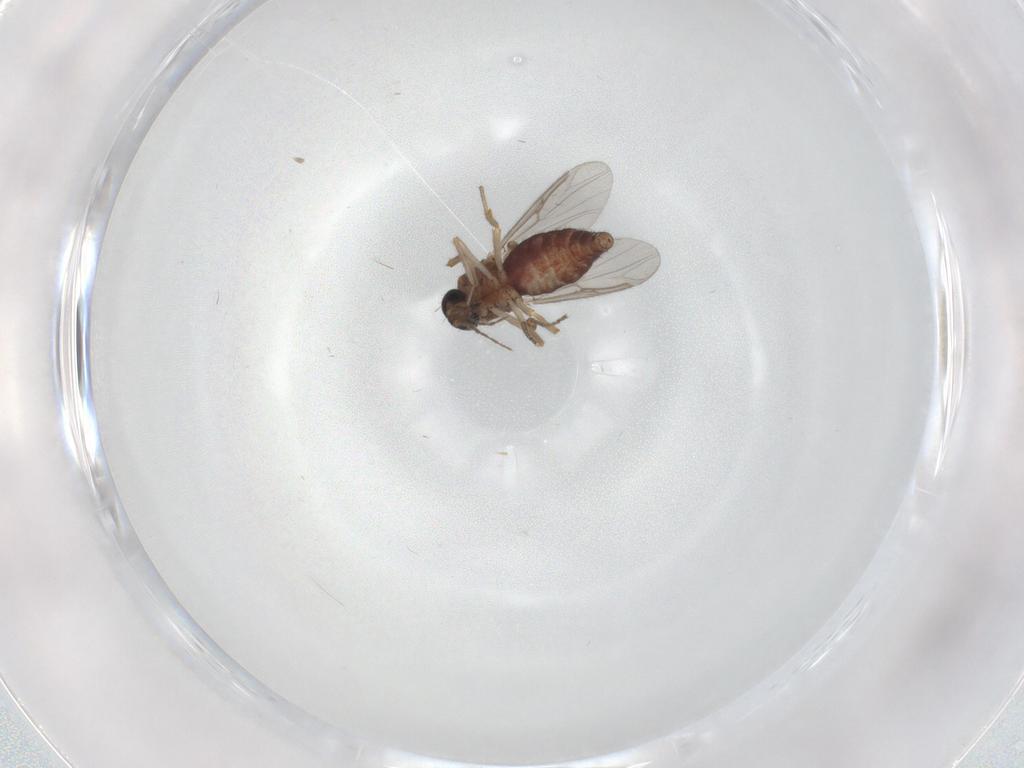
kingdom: Animalia
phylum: Arthropoda
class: Insecta
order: Diptera
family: Ceratopogonidae
